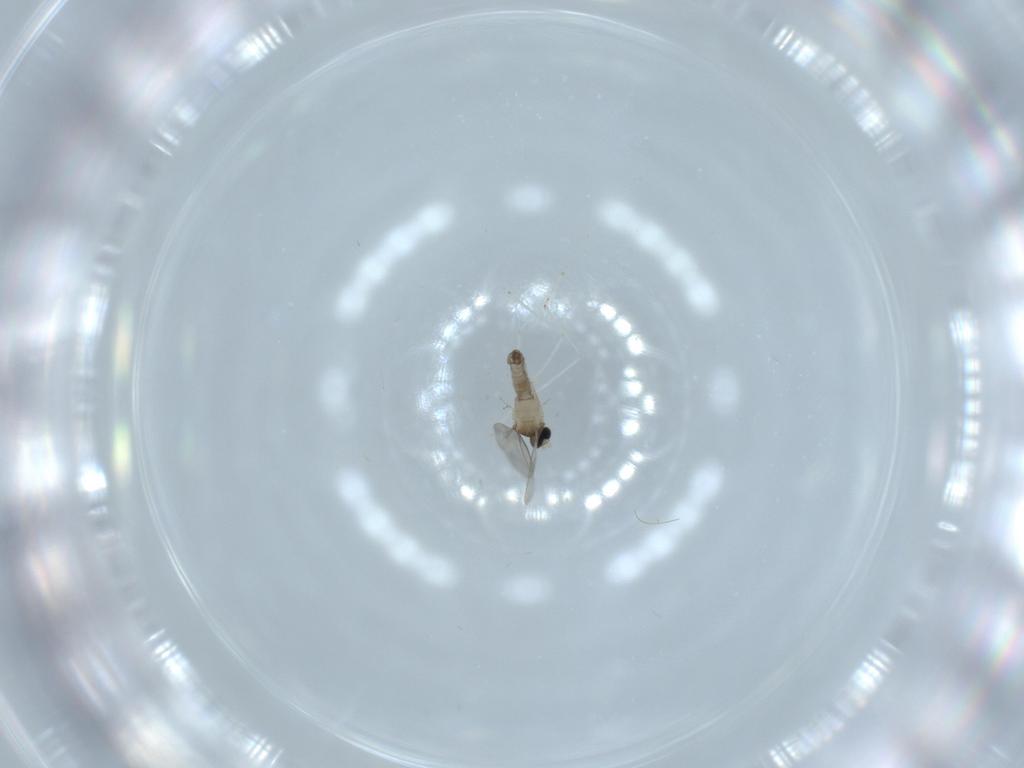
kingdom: Animalia
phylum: Arthropoda
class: Insecta
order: Diptera
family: Cecidomyiidae
